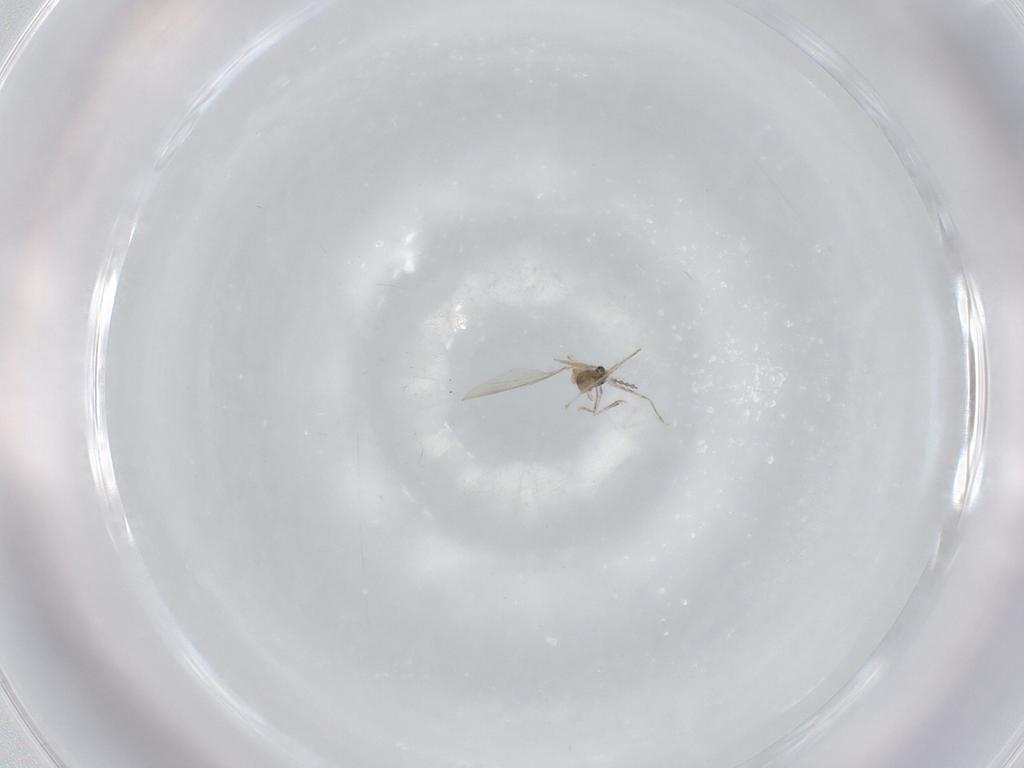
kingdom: Animalia
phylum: Arthropoda
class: Insecta
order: Diptera
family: Cecidomyiidae
